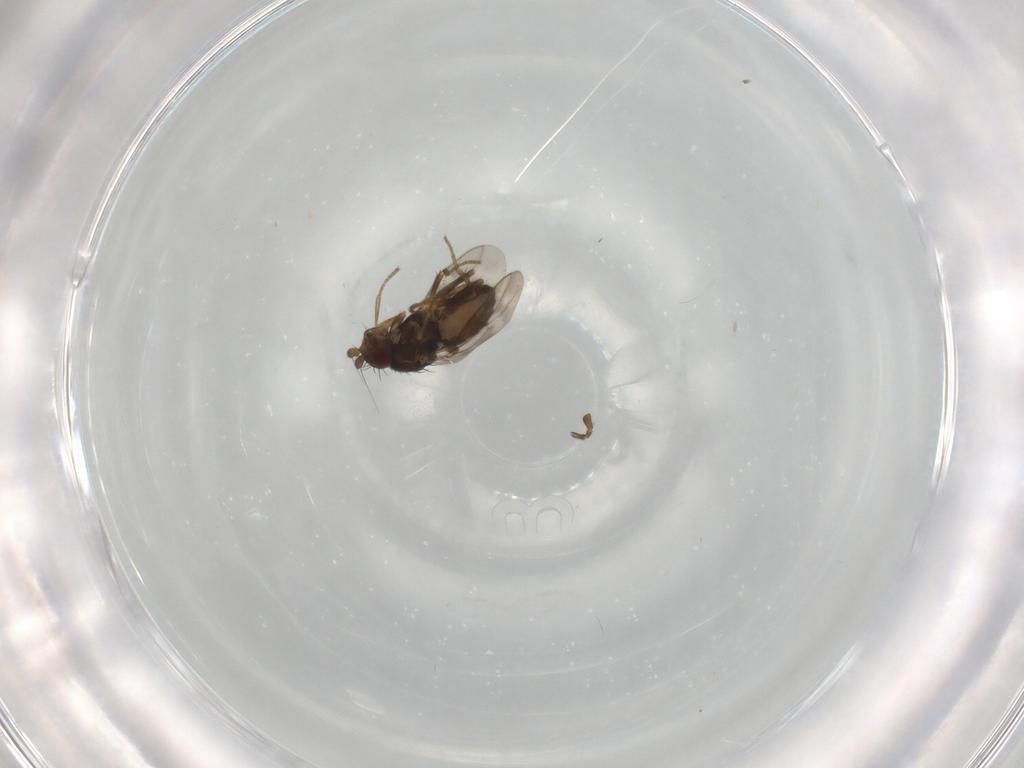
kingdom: Animalia
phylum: Arthropoda
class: Insecta
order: Diptera
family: Sphaeroceridae
